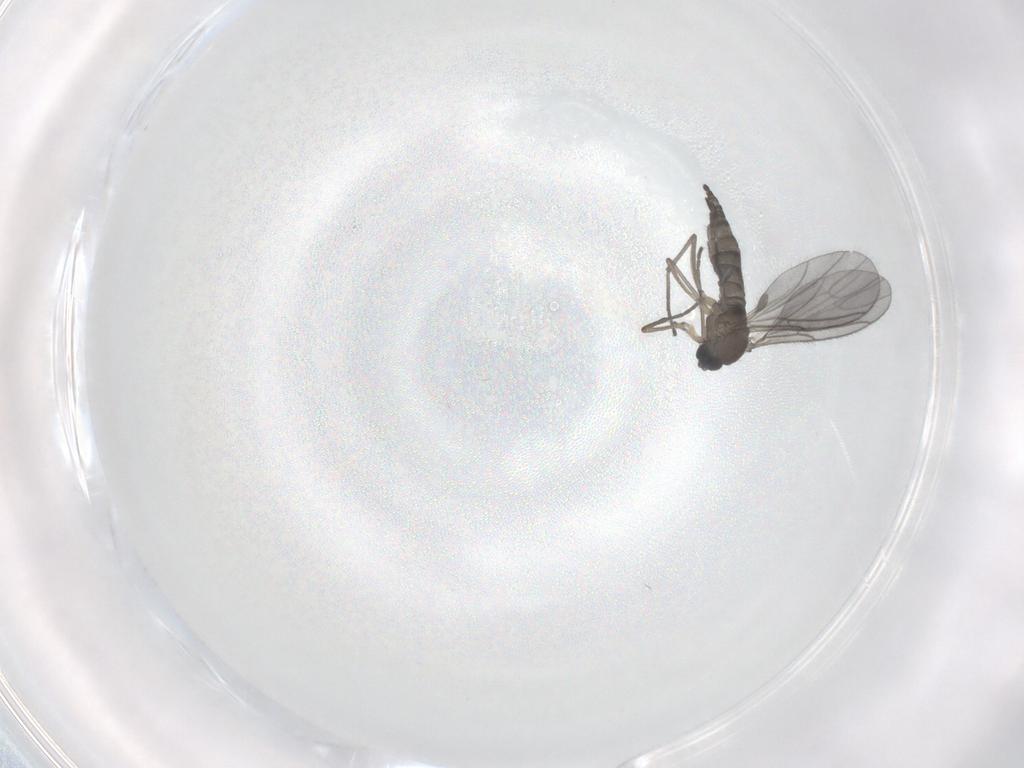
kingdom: Animalia
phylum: Arthropoda
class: Insecta
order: Diptera
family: Sciaridae
